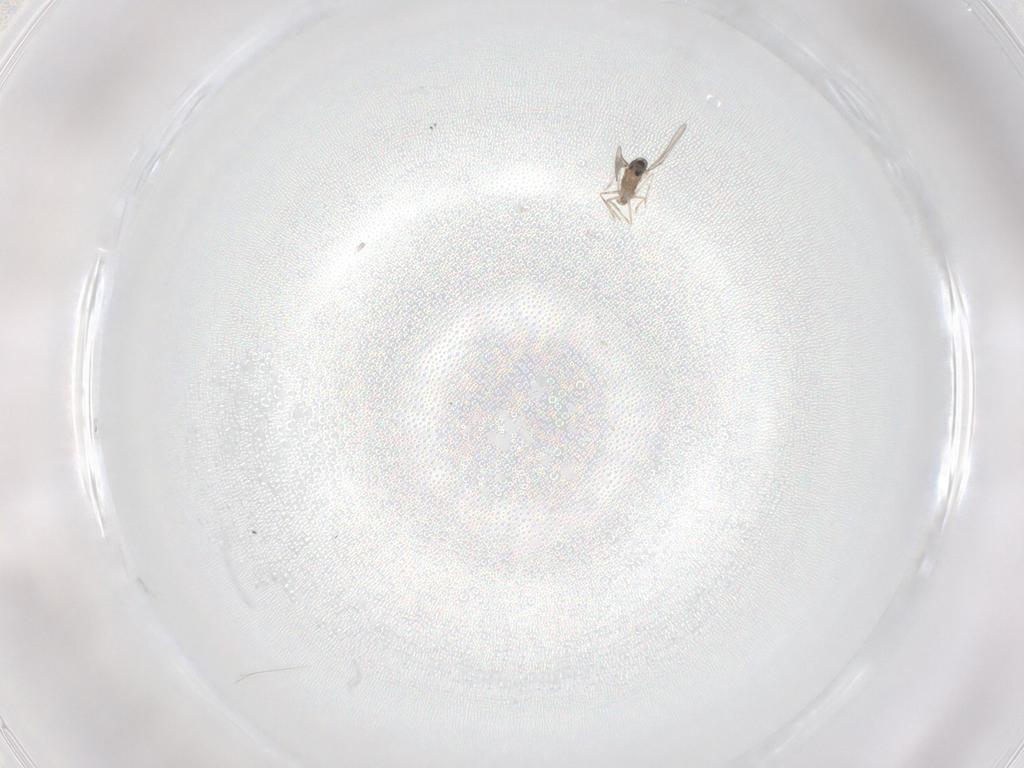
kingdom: Animalia
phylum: Arthropoda
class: Insecta
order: Diptera
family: Cecidomyiidae
